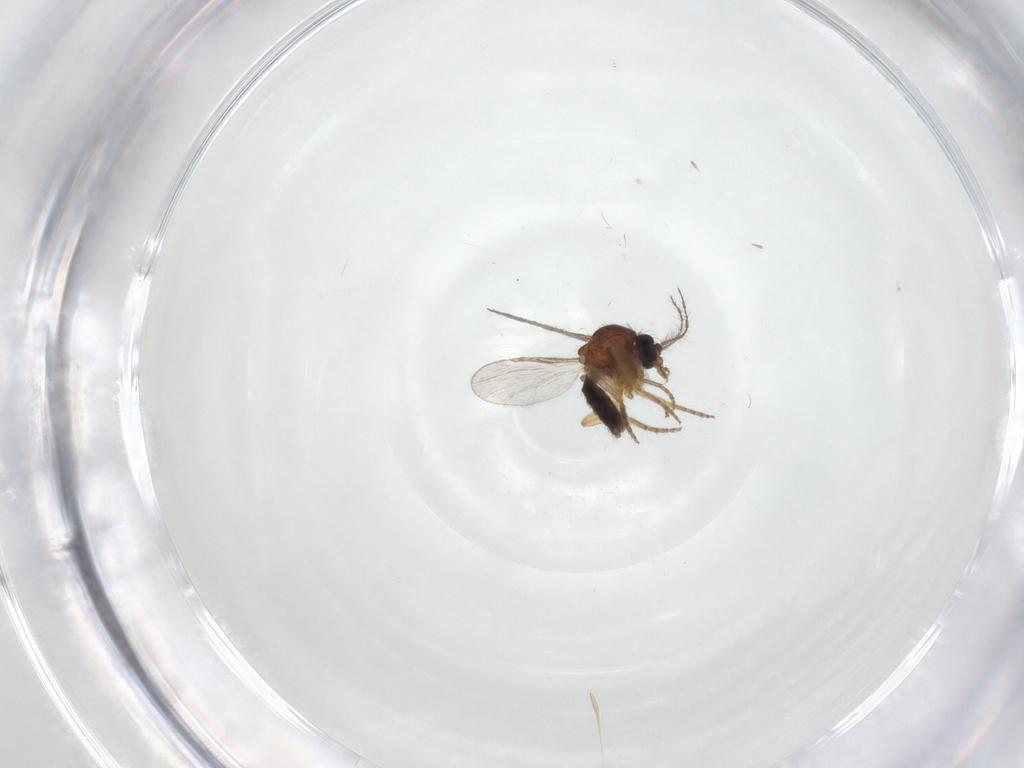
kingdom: Animalia
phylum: Arthropoda
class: Insecta
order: Diptera
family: Ceratopogonidae
